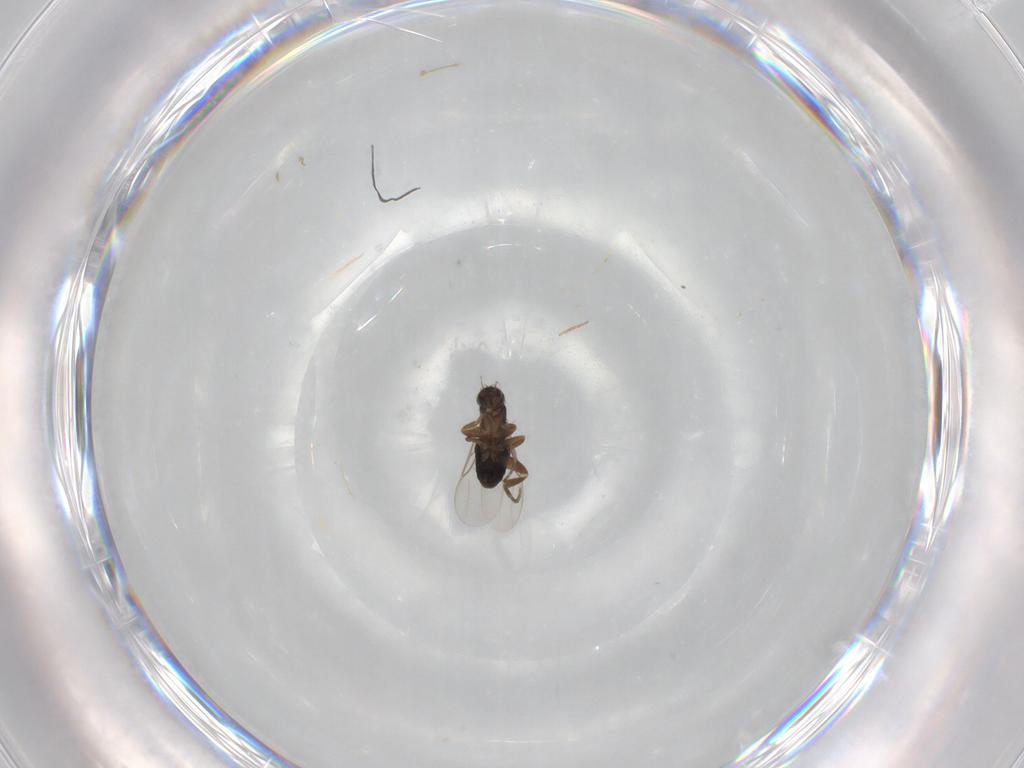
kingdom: Animalia
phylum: Arthropoda
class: Insecta
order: Diptera
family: Phoridae
